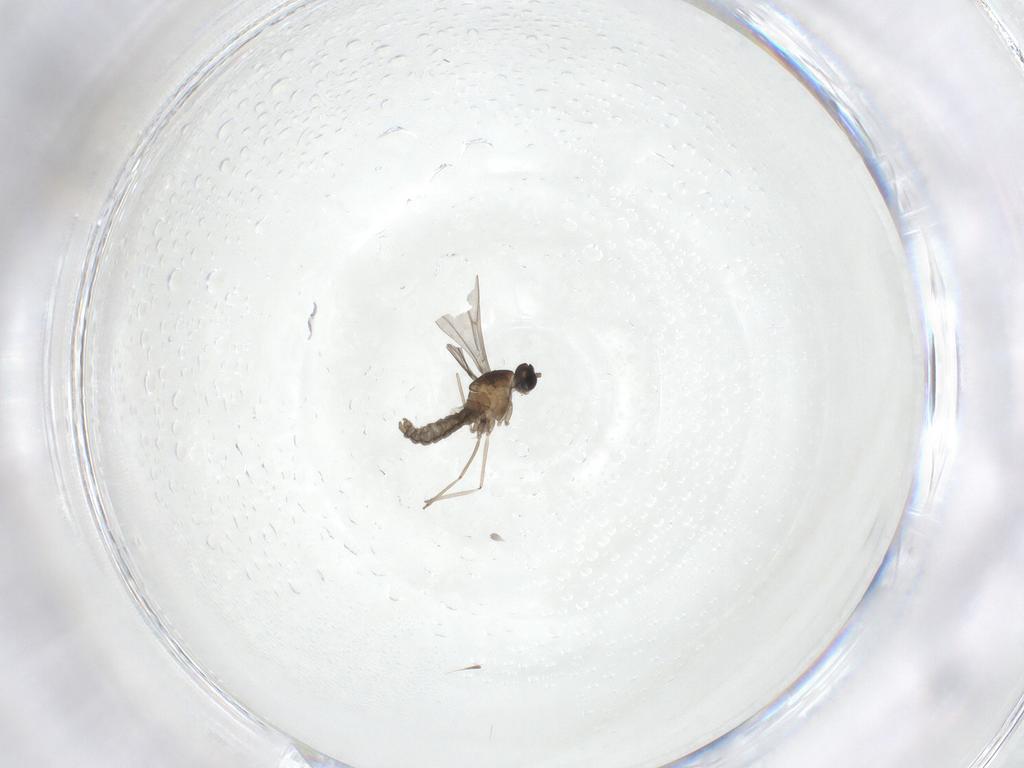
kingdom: Animalia
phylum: Arthropoda
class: Insecta
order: Diptera
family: Cecidomyiidae
